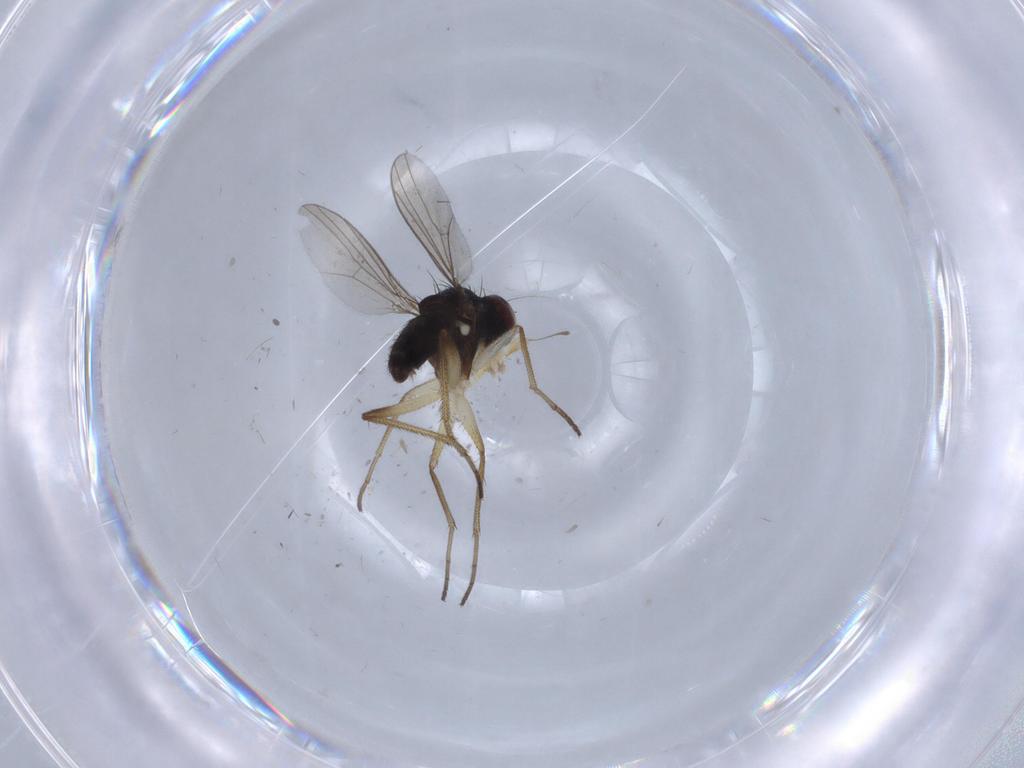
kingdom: Animalia
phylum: Arthropoda
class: Insecta
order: Diptera
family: Dolichopodidae
